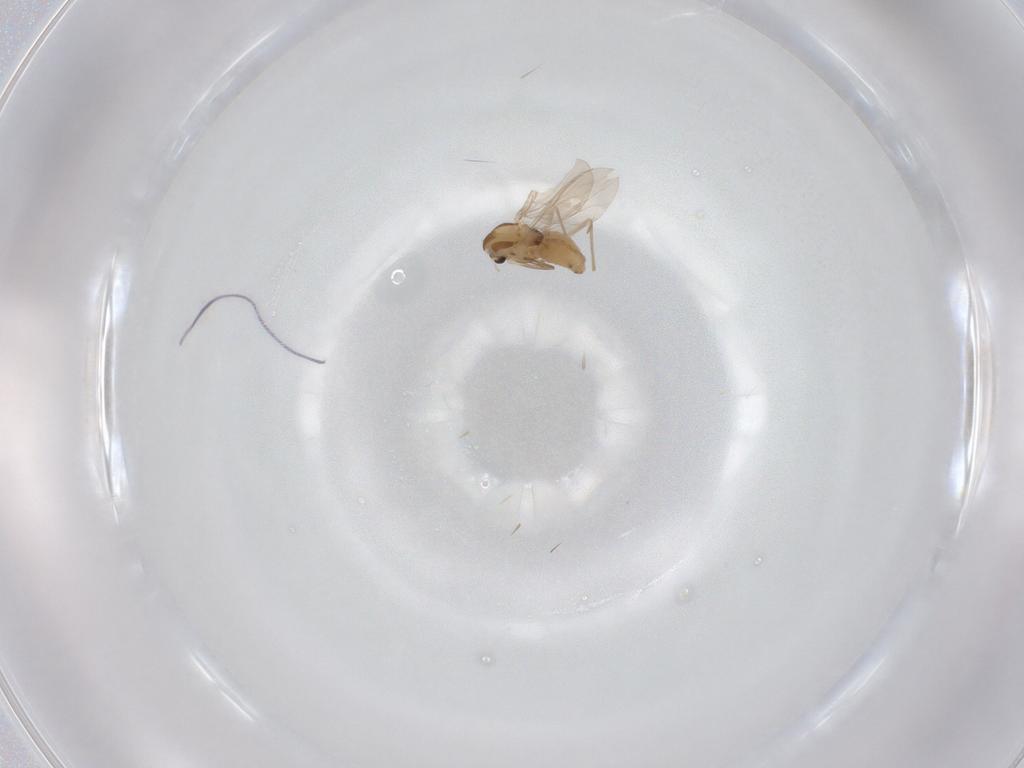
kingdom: Animalia
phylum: Arthropoda
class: Insecta
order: Diptera
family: Chironomidae
